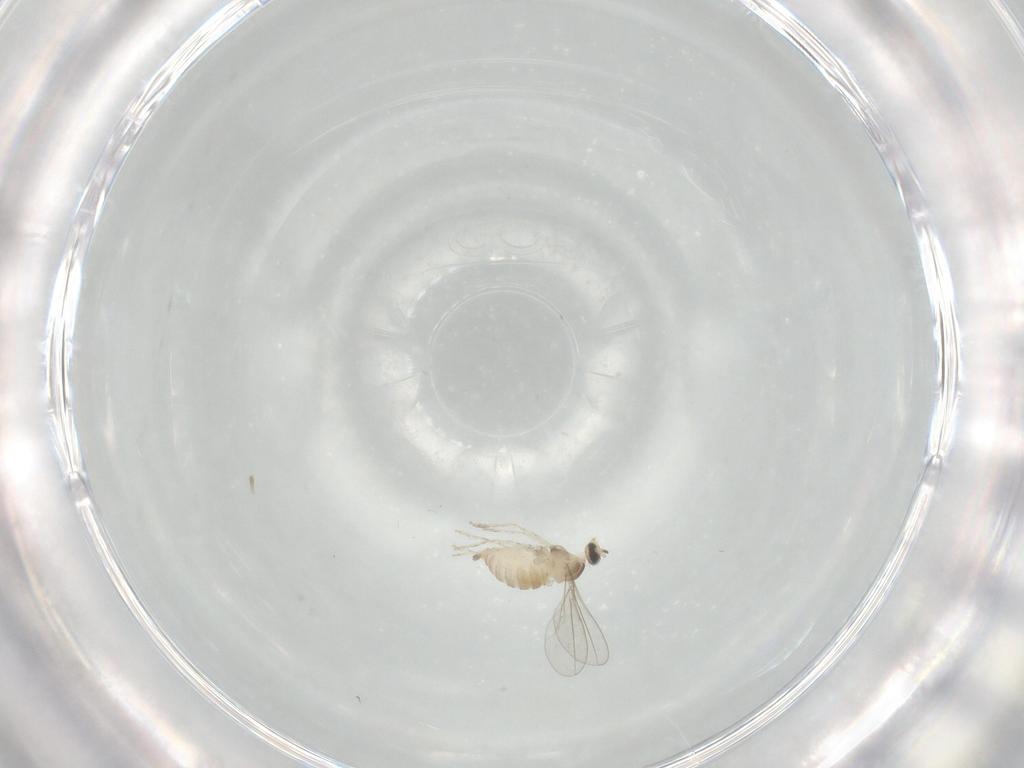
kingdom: Animalia
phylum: Arthropoda
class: Insecta
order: Diptera
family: Cecidomyiidae
